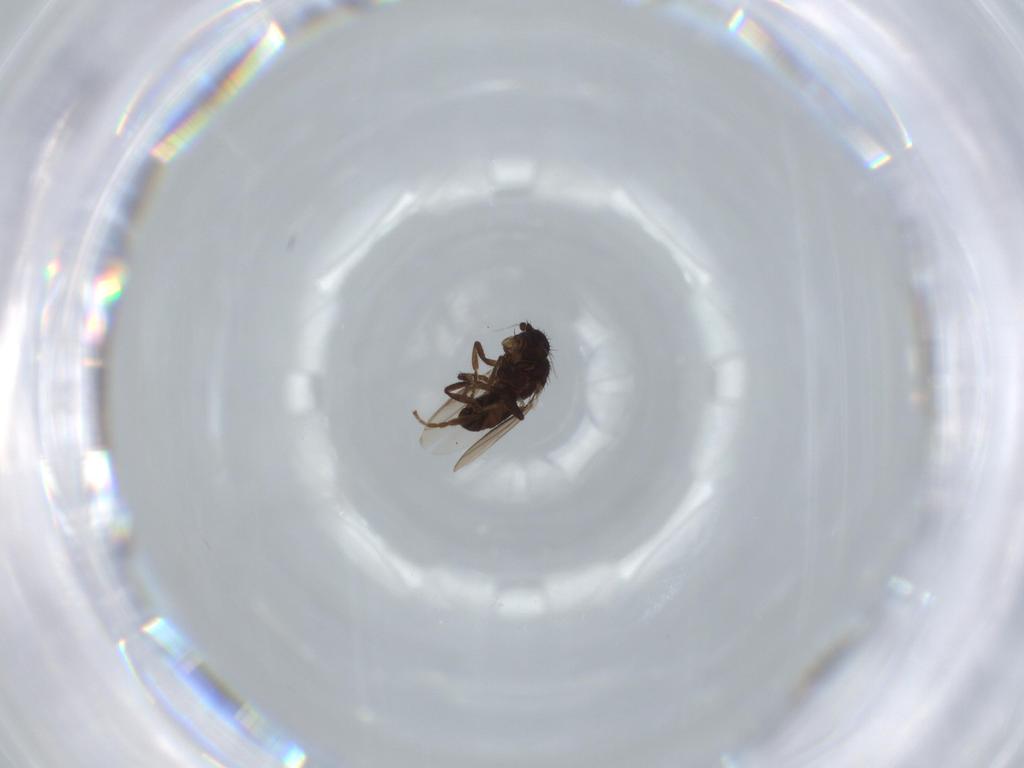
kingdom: Animalia
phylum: Arthropoda
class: Insecta
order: Diptera
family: Sphaeroceridae
